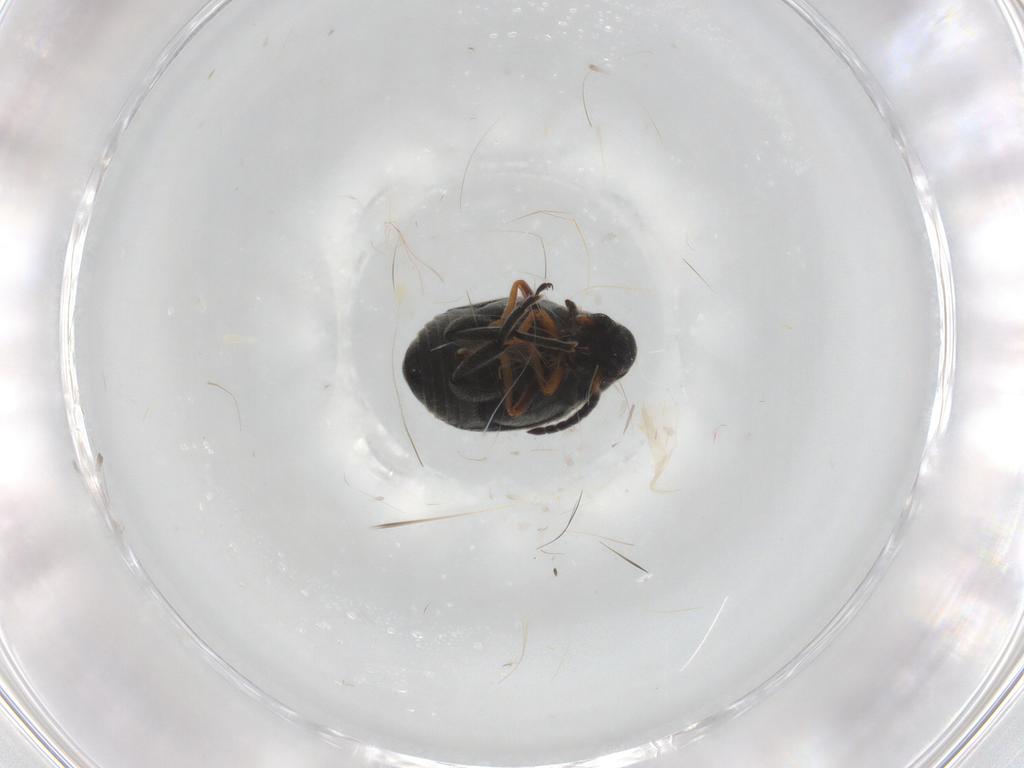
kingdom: Animalia
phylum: Arthropoda
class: Insecta
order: Coleoptera
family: Chrysomelidae
